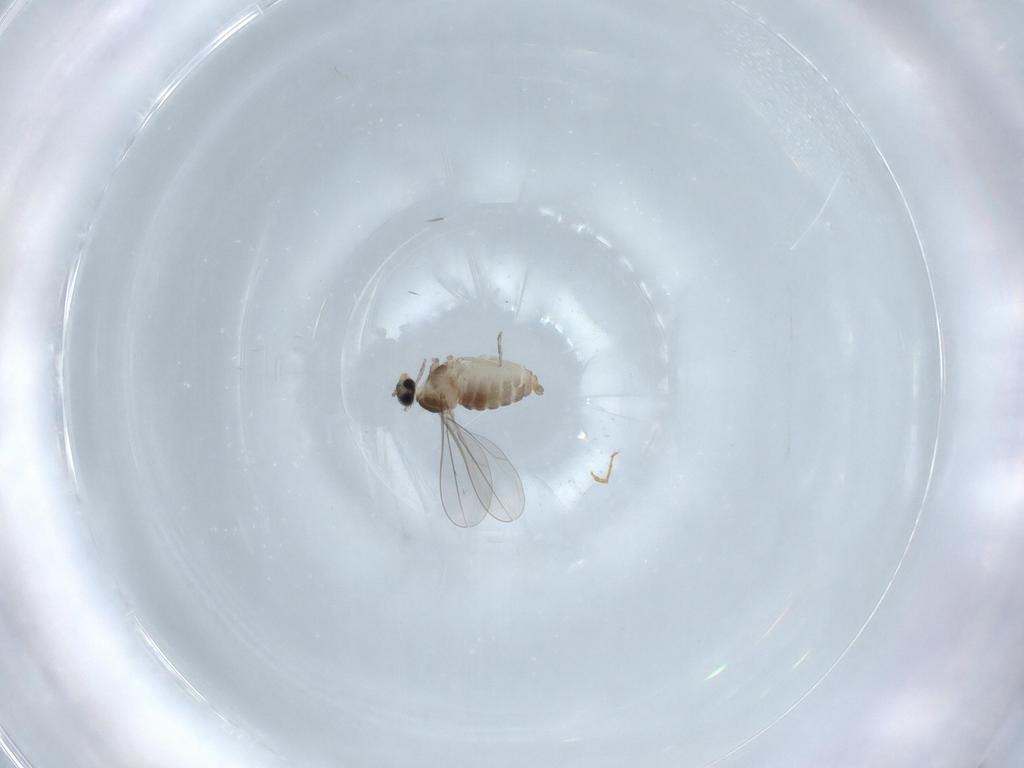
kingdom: Animalia
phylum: Arthropoda
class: Insecta
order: Diptera
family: Cecidomyiidae
